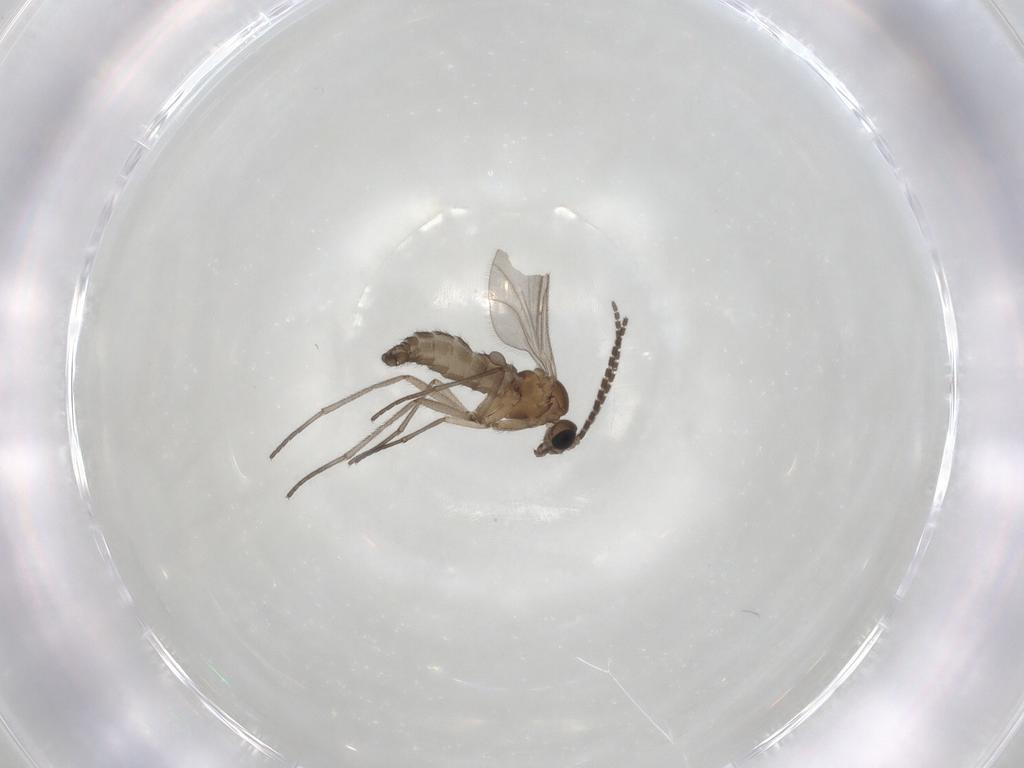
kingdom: Animalia
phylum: Arthropoda
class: Insecta
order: Diptera
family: Sciaridae
